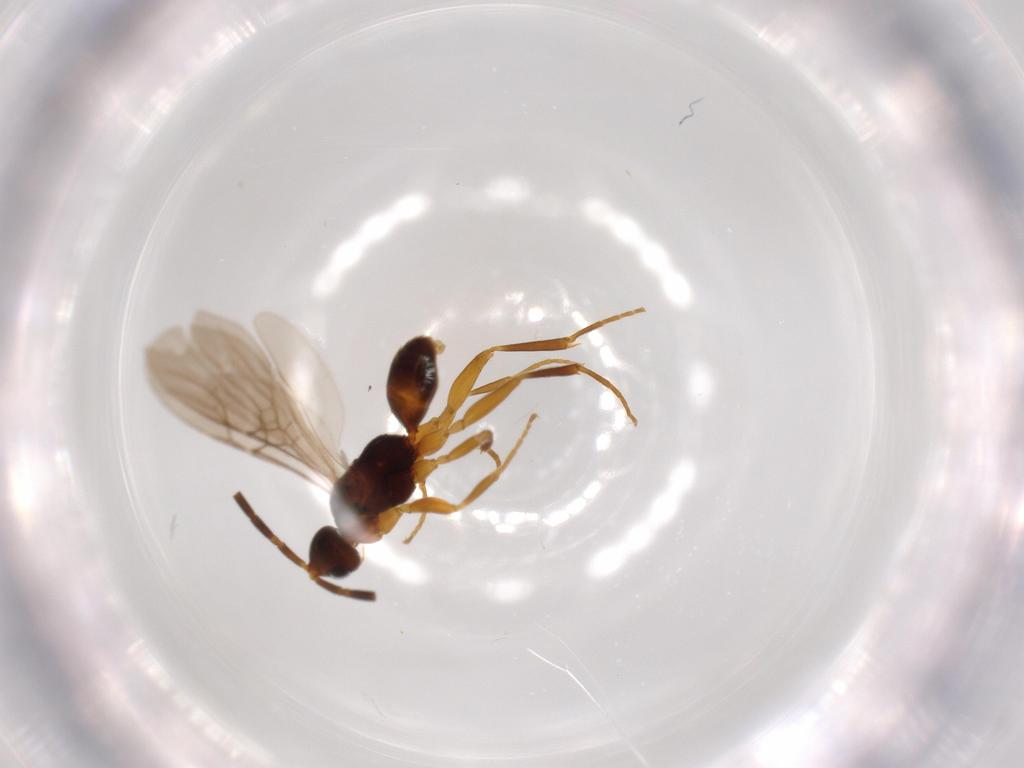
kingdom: Animalia
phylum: Arthropoda
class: Insecta
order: Hymenoptera
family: Embolemidae
